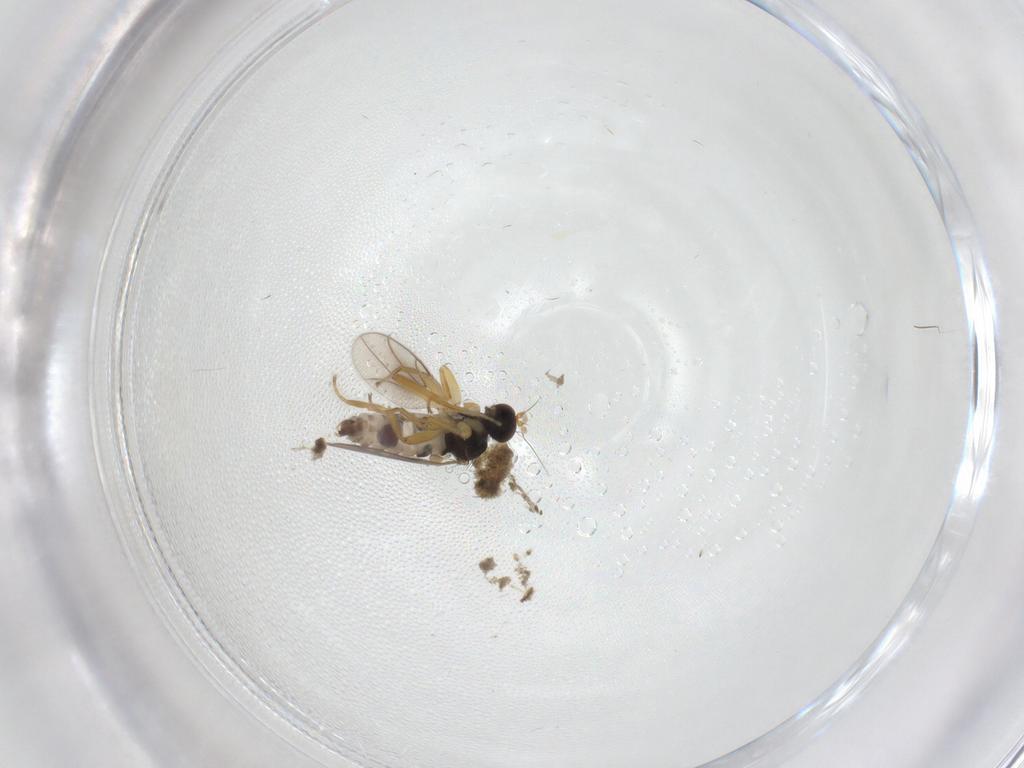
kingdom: Animalia
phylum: Arthropoda
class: Insecta
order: Diptera
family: Hybotidae
